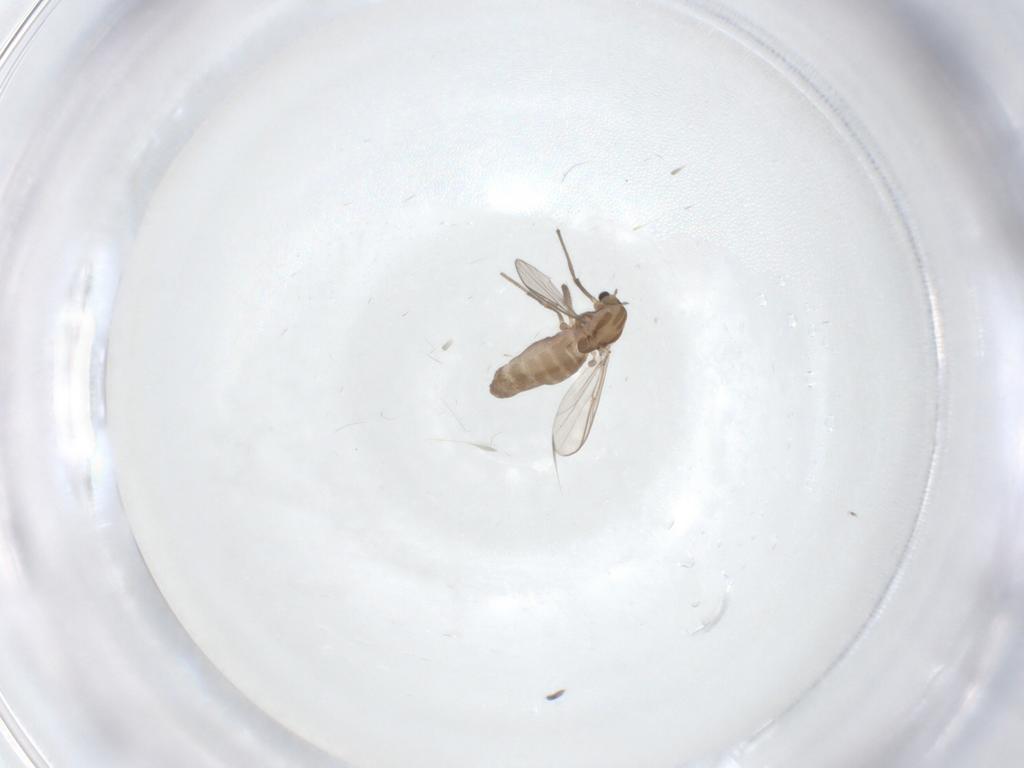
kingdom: Animalia
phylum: Arthropoda
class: Insecta
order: Diptera
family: Chironomidae
